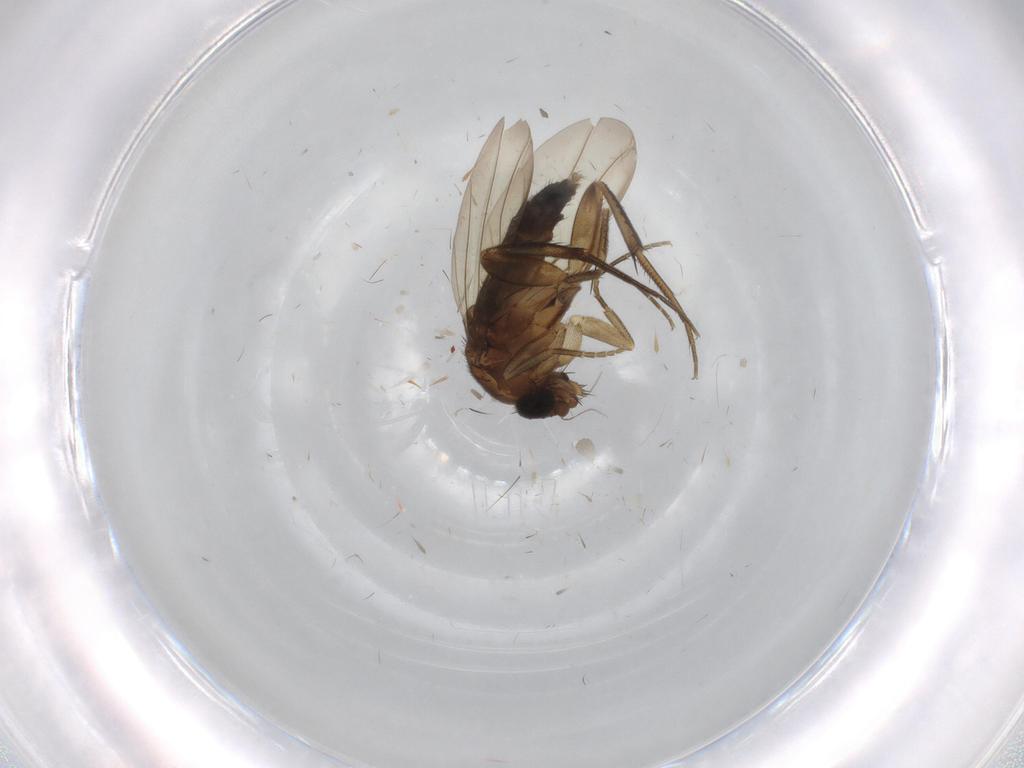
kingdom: Animalia
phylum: Arthropoda
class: Insecta
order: Diptera
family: Phoridae
